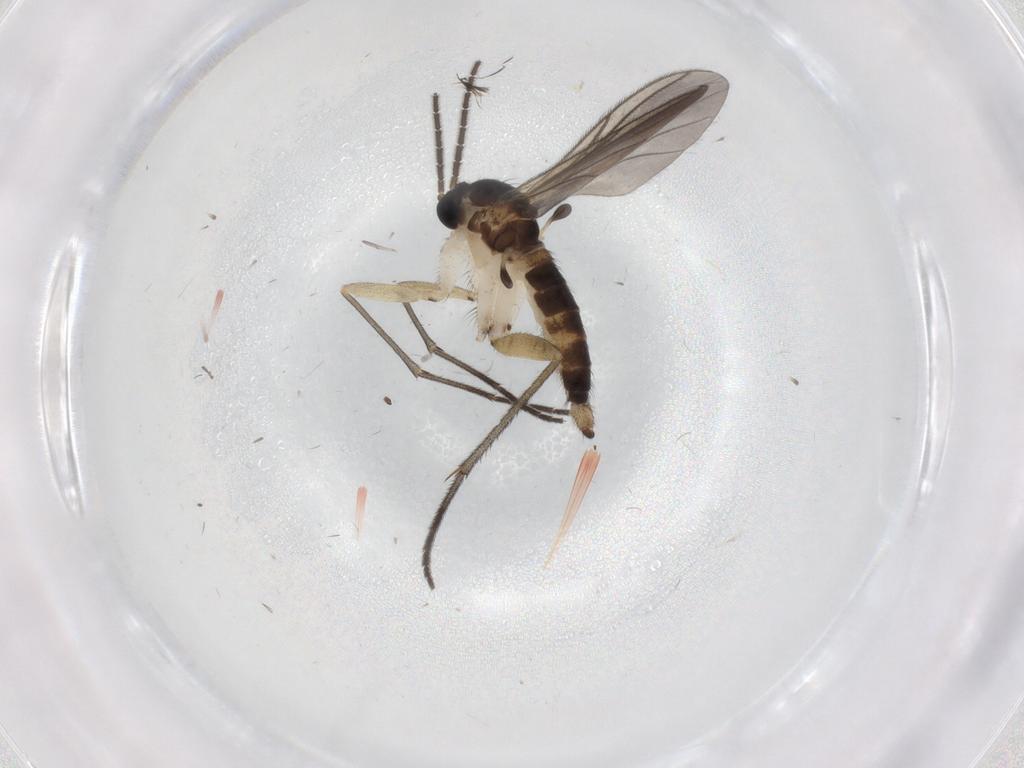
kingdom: Animalia
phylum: Arthropoda
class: Insecta
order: Diptera
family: Sciaridae
